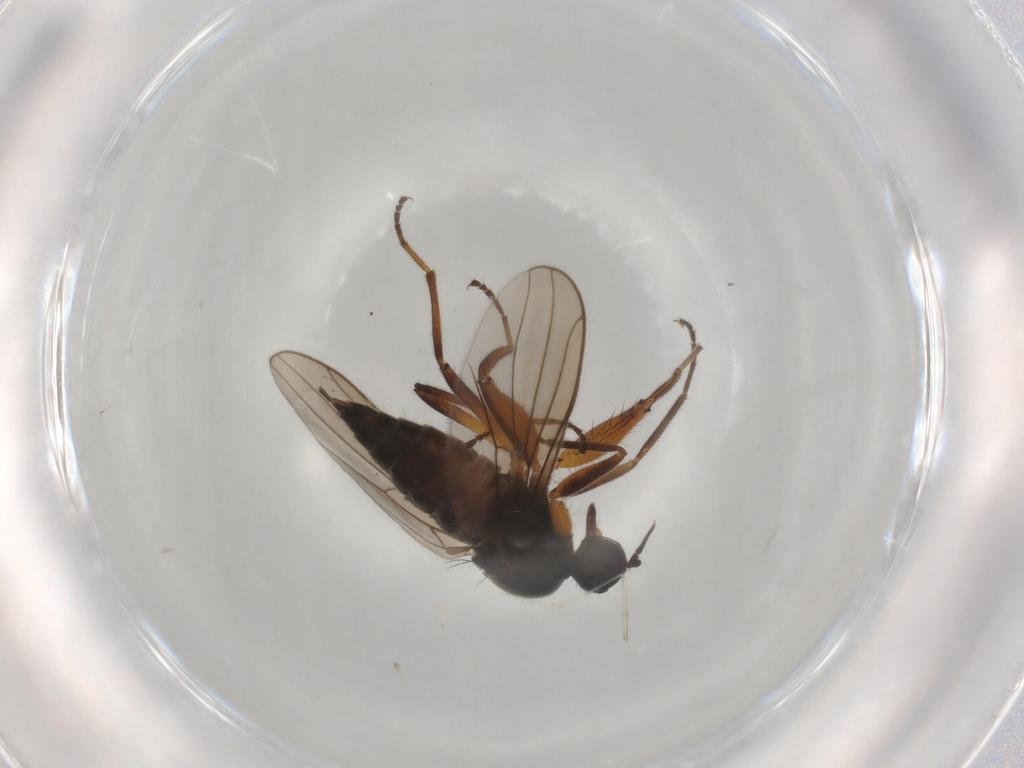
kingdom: Animalia
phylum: Arthropoda
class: Insecta
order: Diptera
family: Hybotidae
